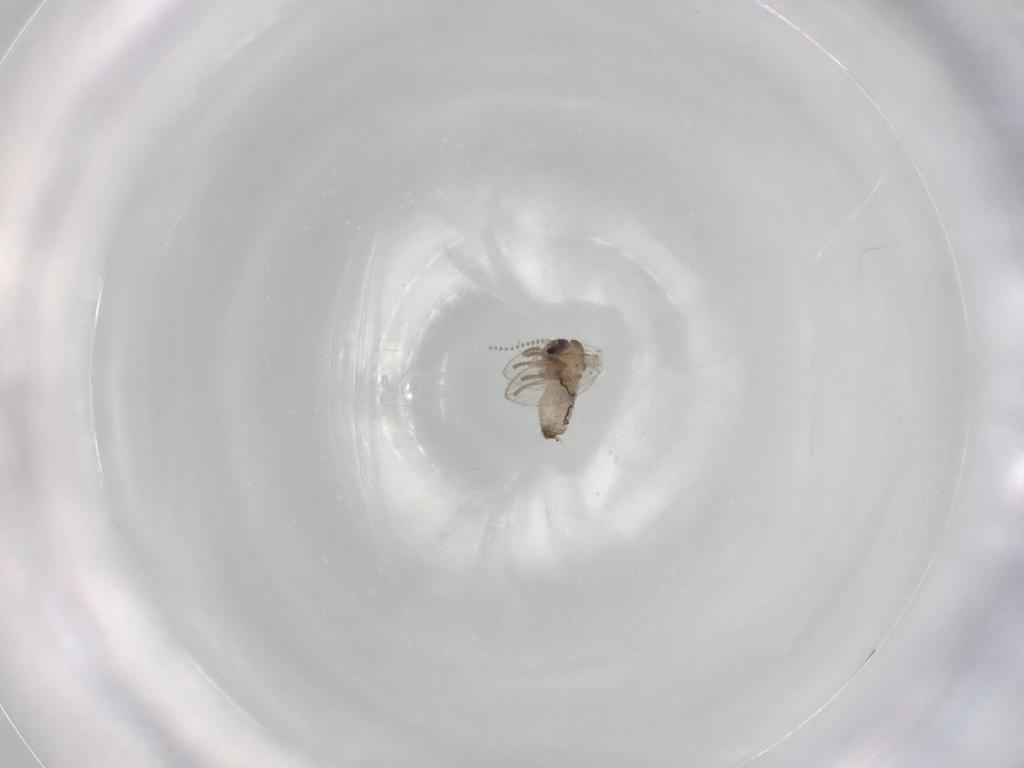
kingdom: Animalia
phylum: Arthropoda
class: Insecta
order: Diptera
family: Psychodidae
